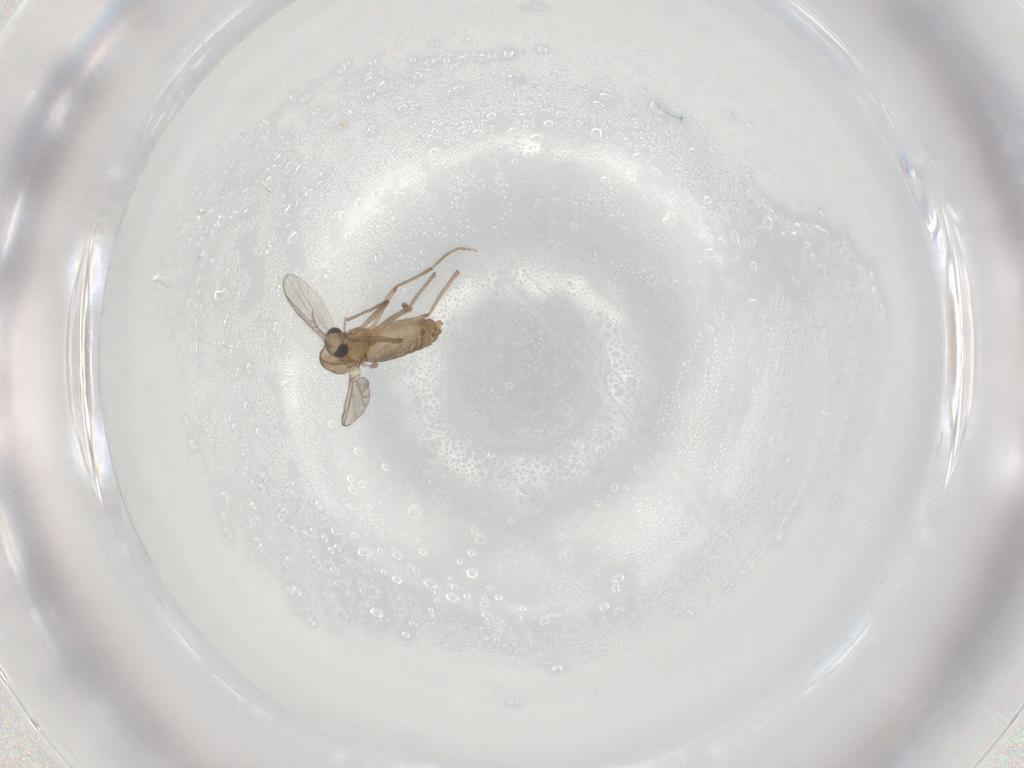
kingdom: Animalia
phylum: Arthropoda
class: Insecta
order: Diptera
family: Chironomidae
